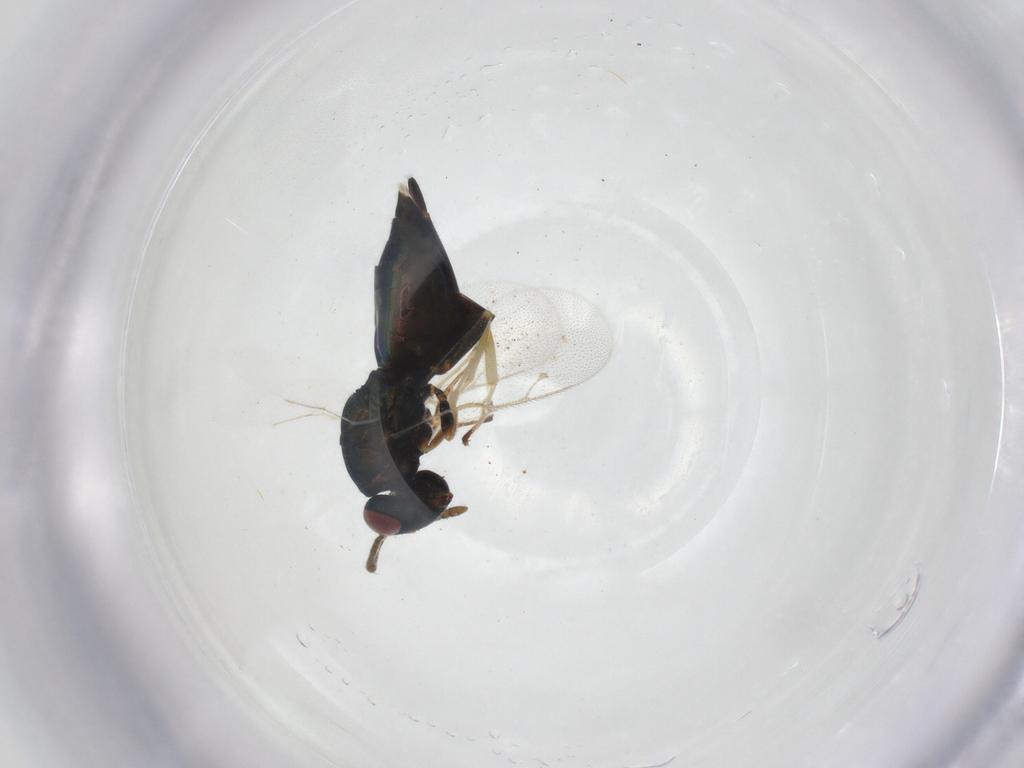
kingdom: Animalia
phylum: Arthropoda
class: Insecta
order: Hymenoptera
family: Pteromalidae
